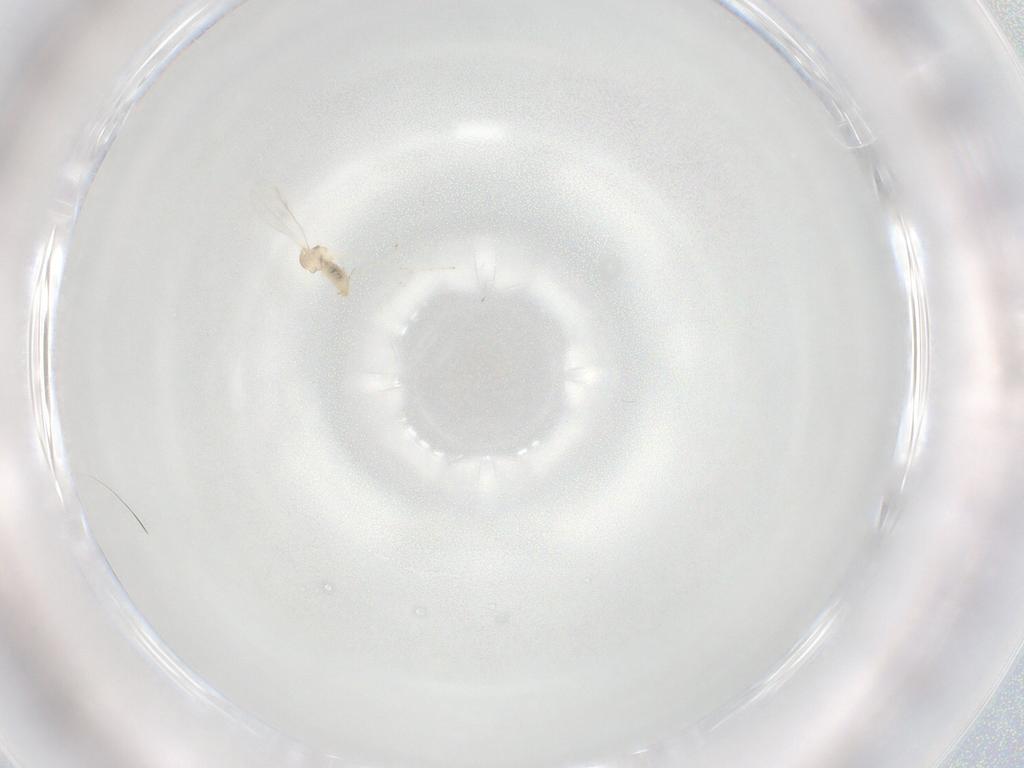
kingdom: Animalia
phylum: Arthropoda
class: Insecta
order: Diptera
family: Cecidomyiidae
